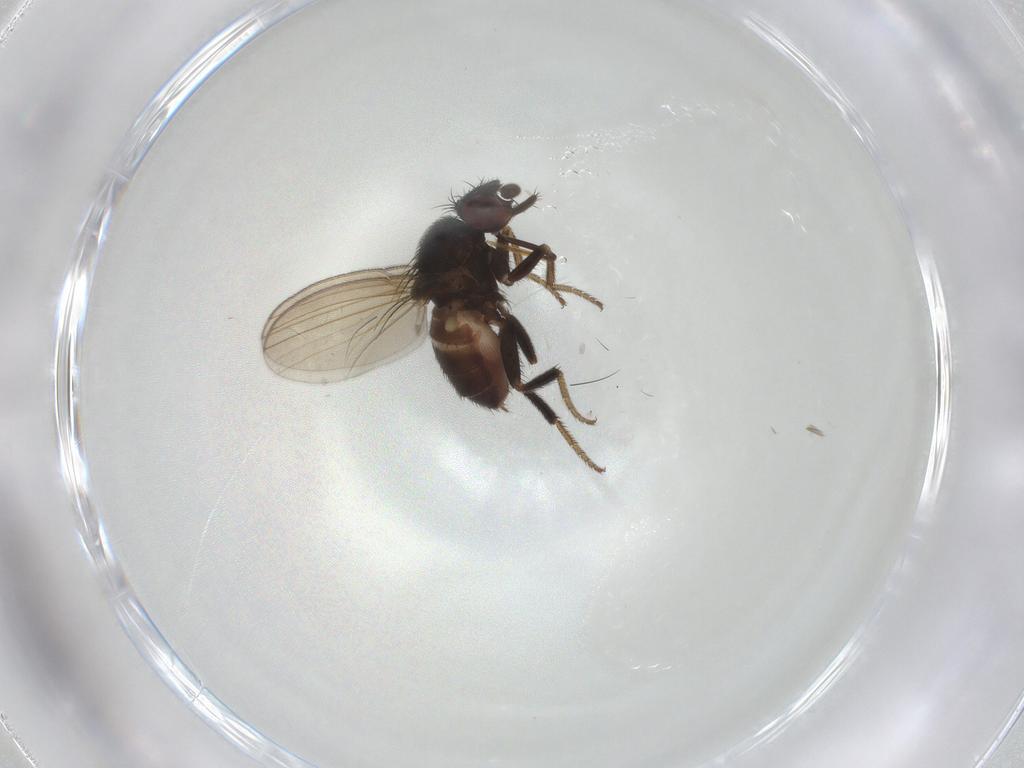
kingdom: Animalia
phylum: Arthropoda
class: Insecta
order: Diptera
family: Milichiidae
